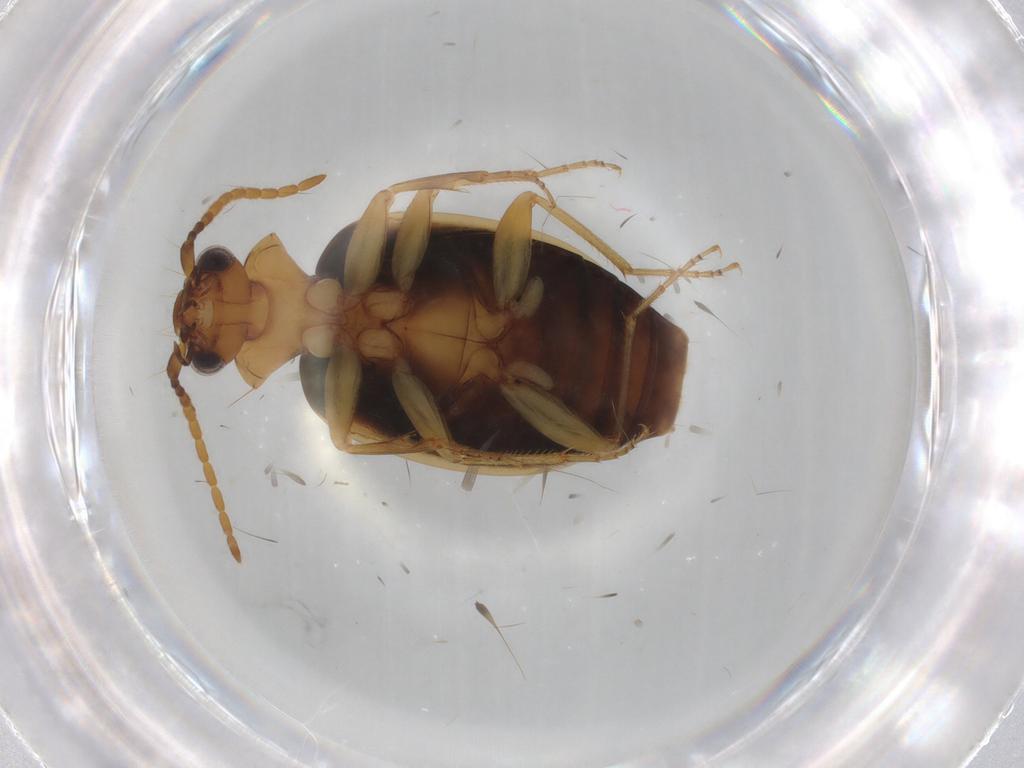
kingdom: Animalia
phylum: Arthropoda
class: Insecta
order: Coleoptera
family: Carabidae
